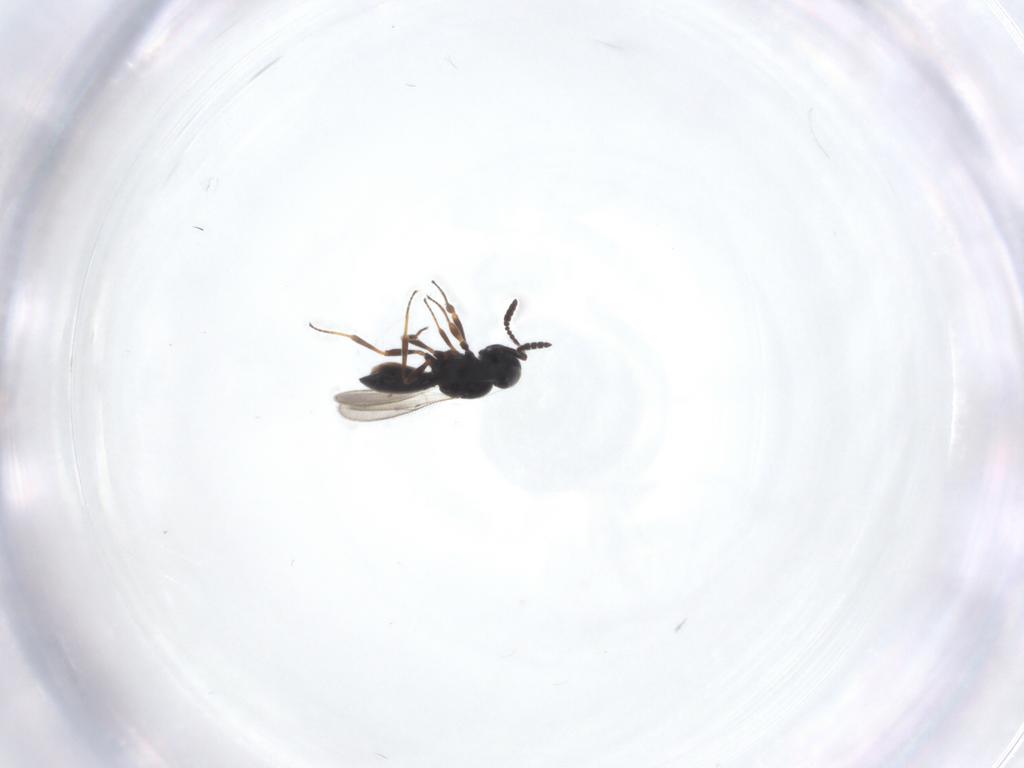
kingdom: Animalia
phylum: Arthropoda
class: Insecta
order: Hymenoptera
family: Scelionidae
